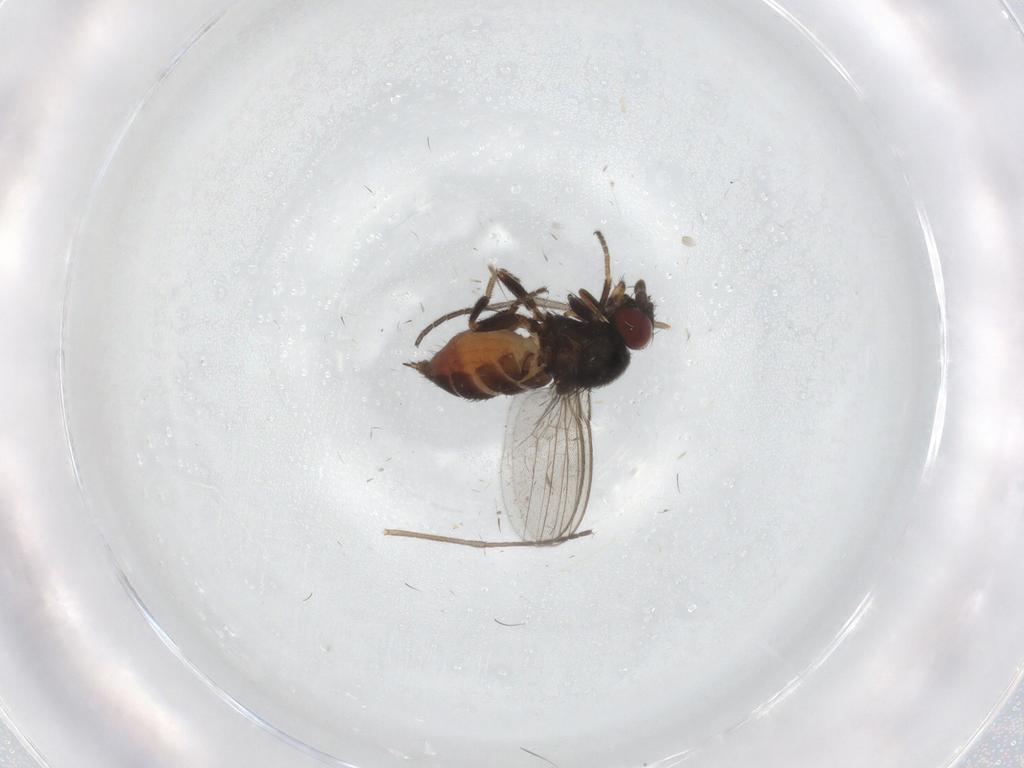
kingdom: Animalia
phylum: Arthropoda
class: Insecta
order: Diptera
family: Milichiidae
